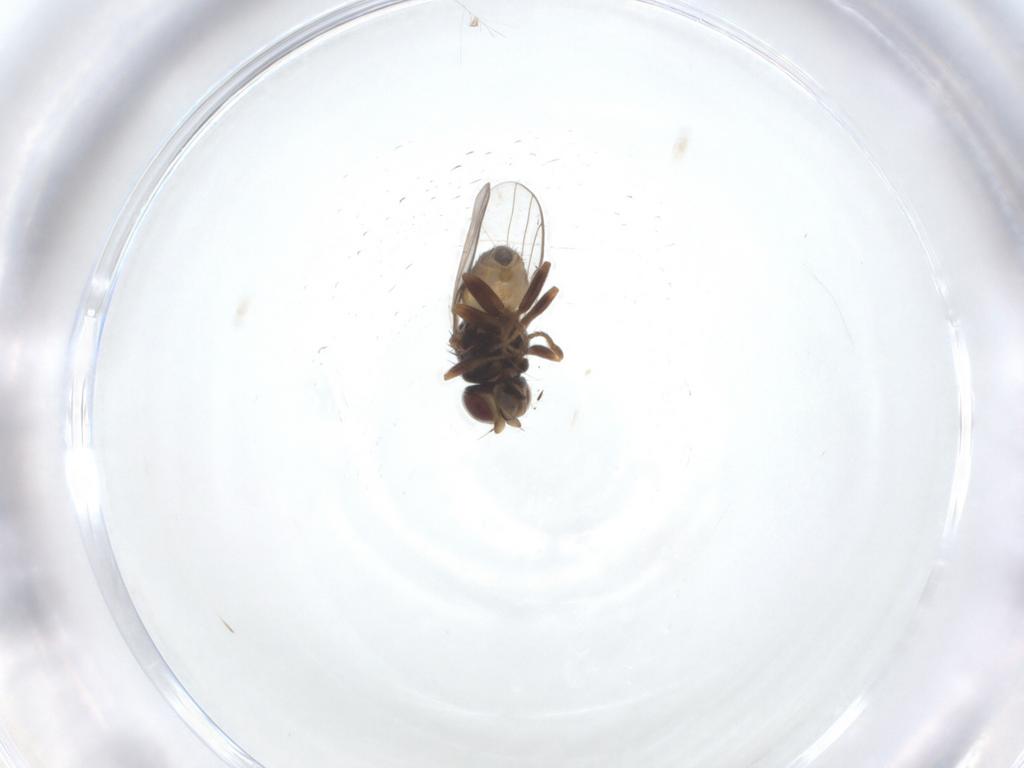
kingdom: Animalia
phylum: Arthropoda
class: Insecta
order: Diptera
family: Chloropidae
